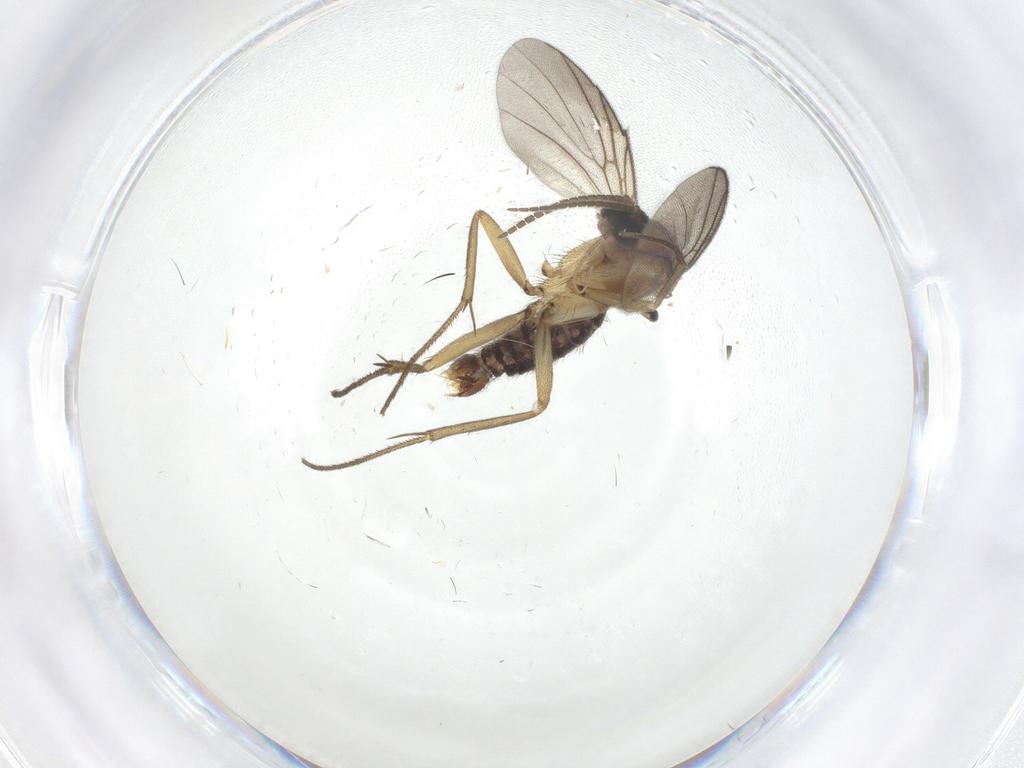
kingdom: Animalia
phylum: Arthropoda
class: Insecta
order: Diptera
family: Mycetophilidae
